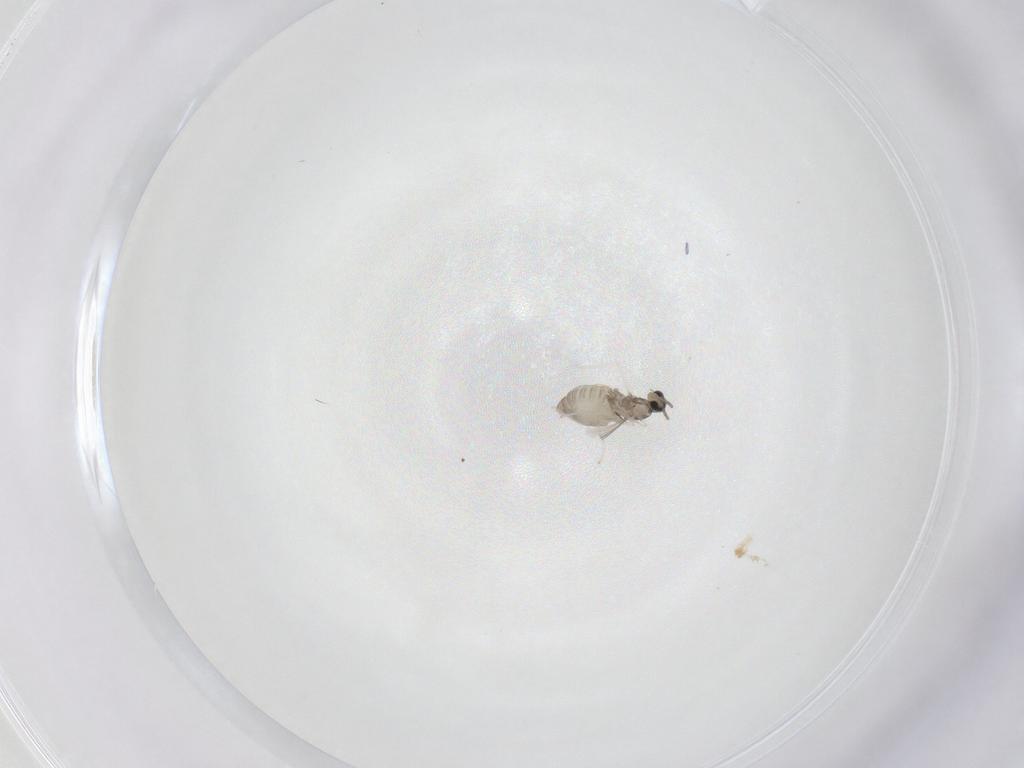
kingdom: Animalia
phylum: Arthropoda
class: Insecta
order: Diptera
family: Cecidomyiidae
